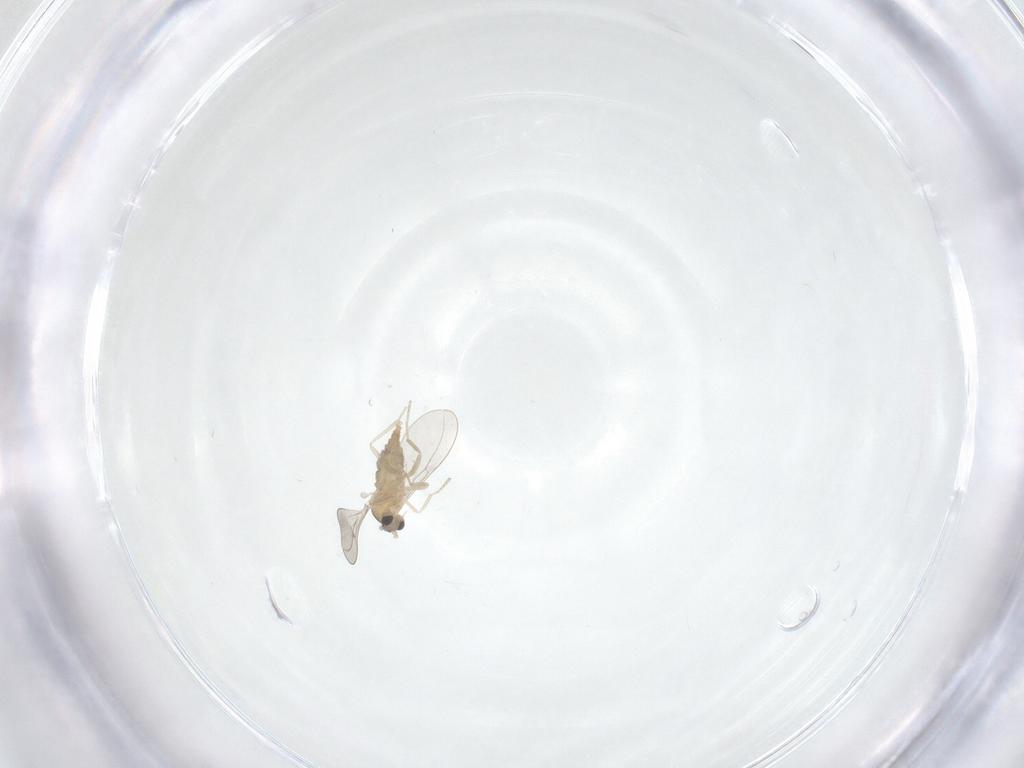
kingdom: Animalia
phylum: Arthropoda
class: Insecta
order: Diptera
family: Cecidomyiidae
